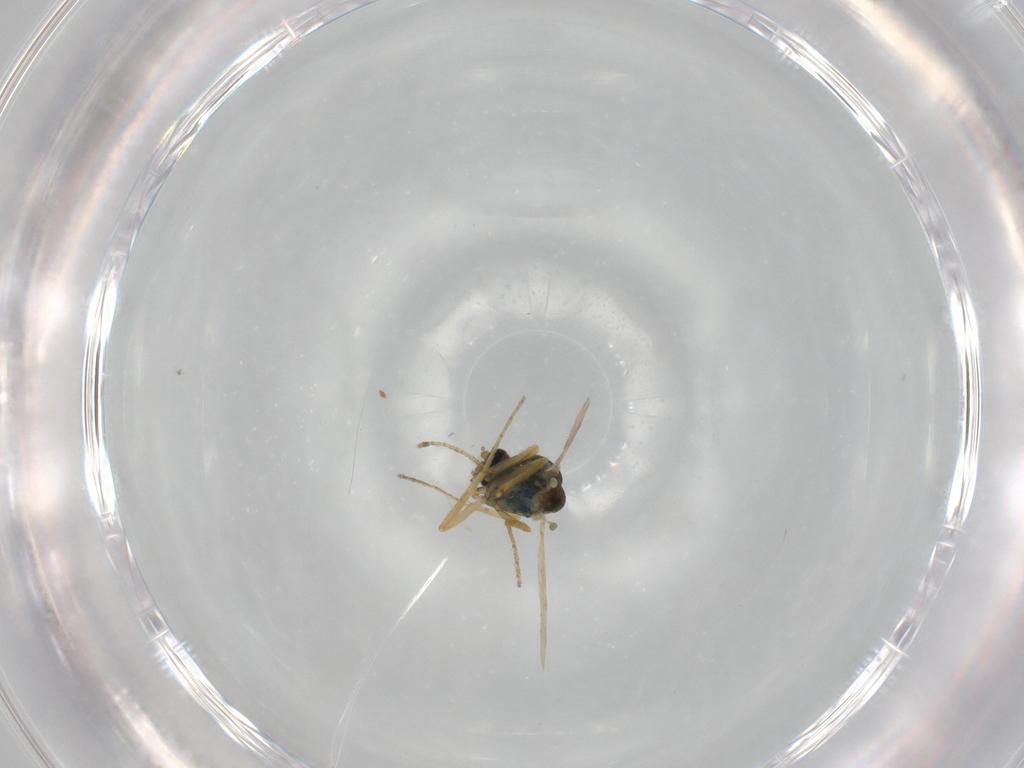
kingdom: Animalia
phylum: Arthropoda
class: Insecta
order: Diptera
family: Ceratopogonidae
